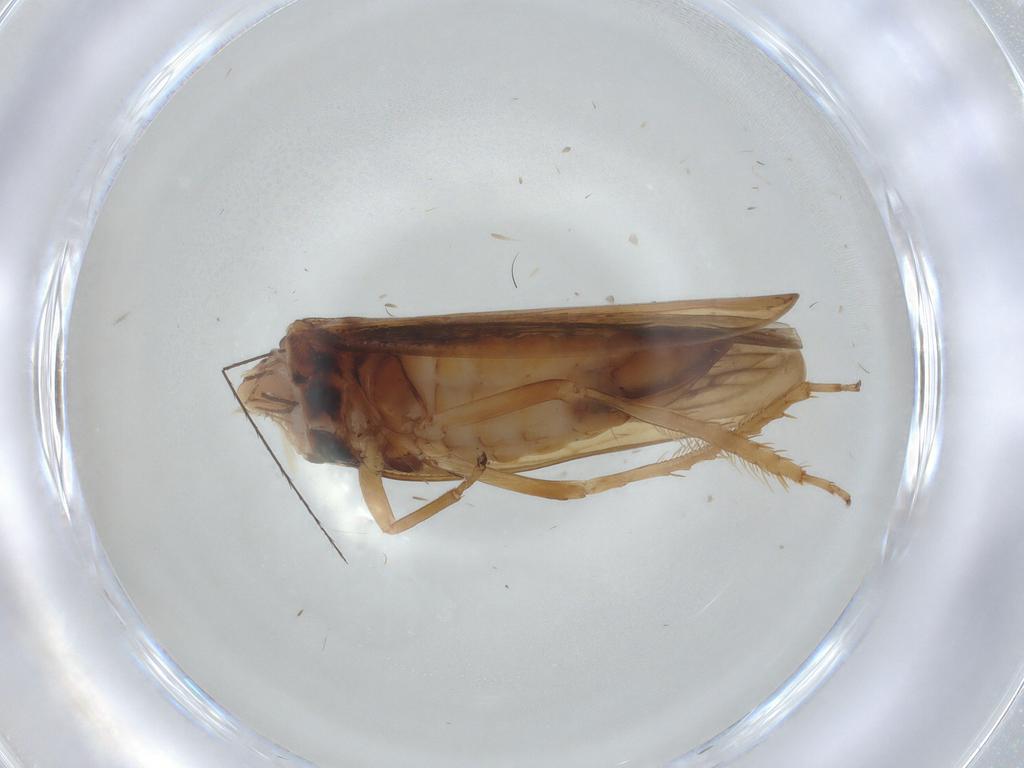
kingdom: Animalia
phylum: Arthropoda
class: Insecta
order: Hemiptera
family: Cicadellidae
